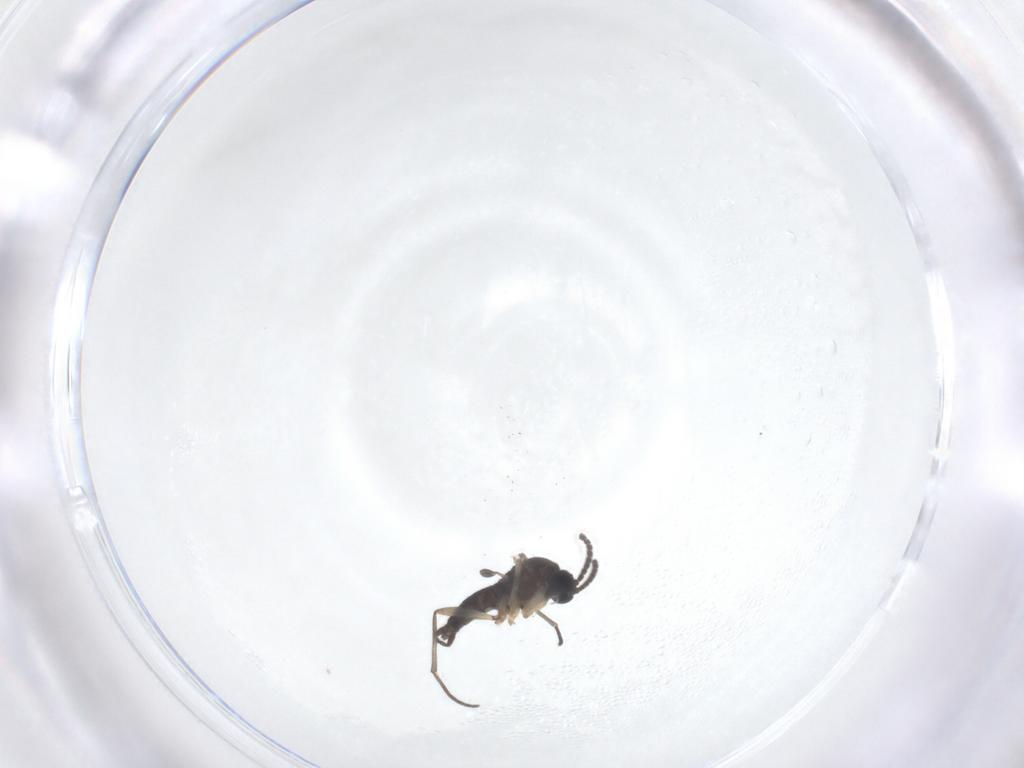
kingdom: Animalia
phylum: Arthropoda
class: Insecta
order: Diptera
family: Sciaridae
